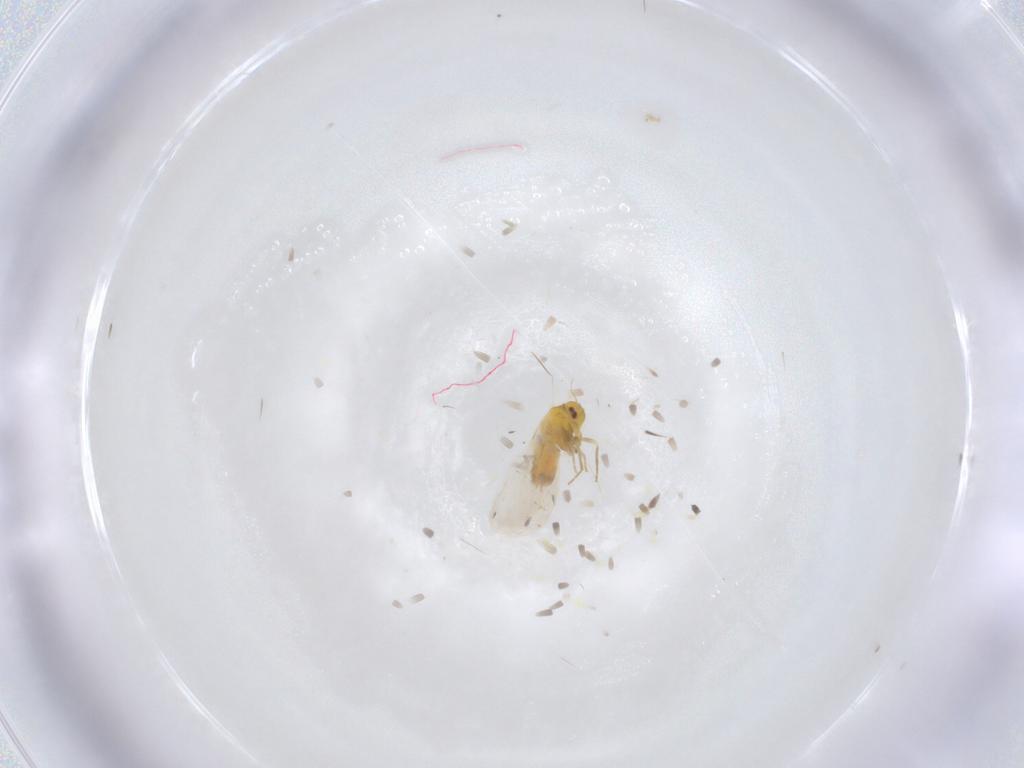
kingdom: Animalia
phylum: Arthropoda
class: Insecta
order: Hemiptera
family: Aleyrodidae
